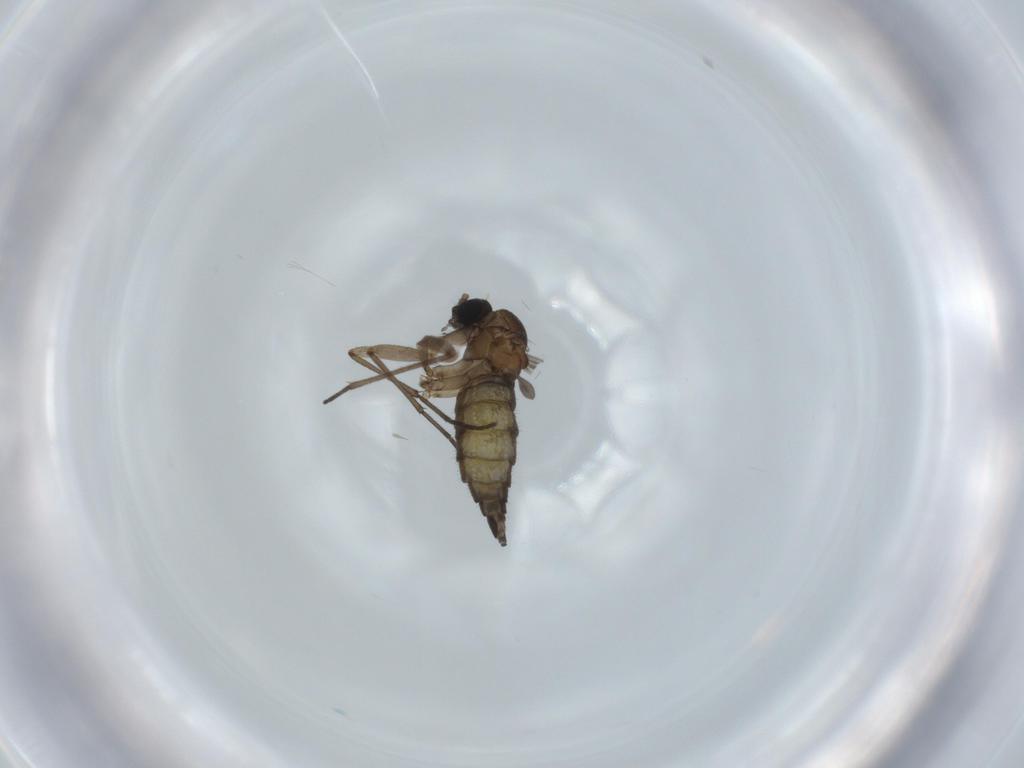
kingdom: Animalia
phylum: Arthropoda
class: Insecta
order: Diptera
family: Sciaridae
